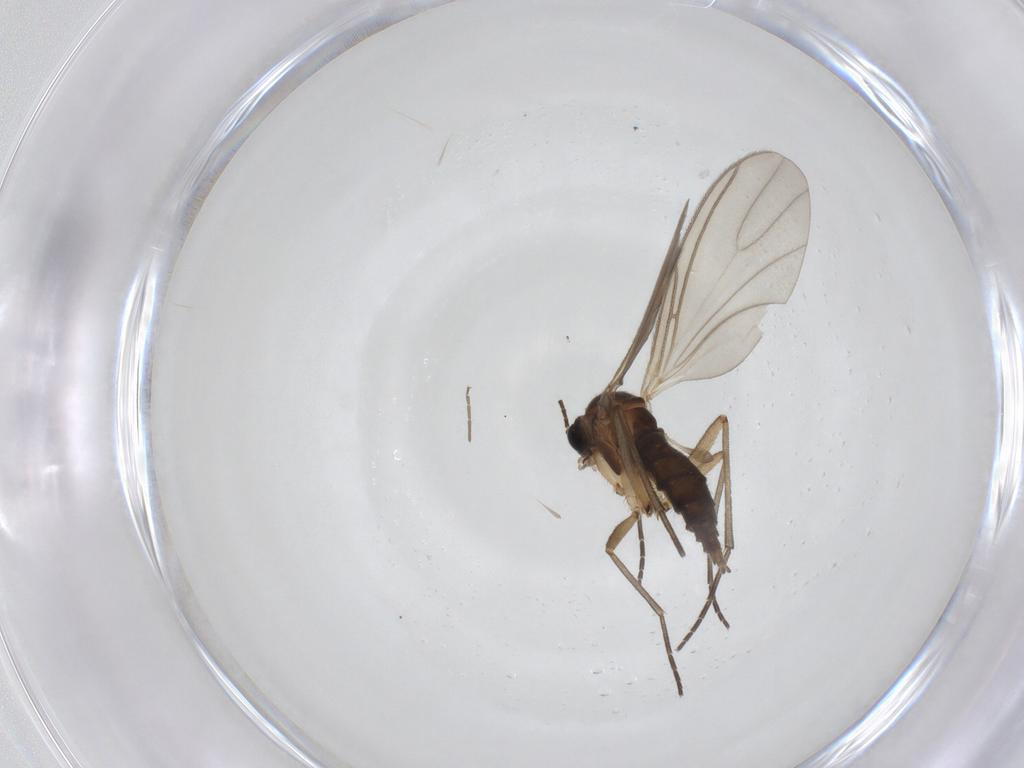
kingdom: Animalia
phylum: Arthropoda
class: Insecta
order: Diptera
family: Sciaridae
